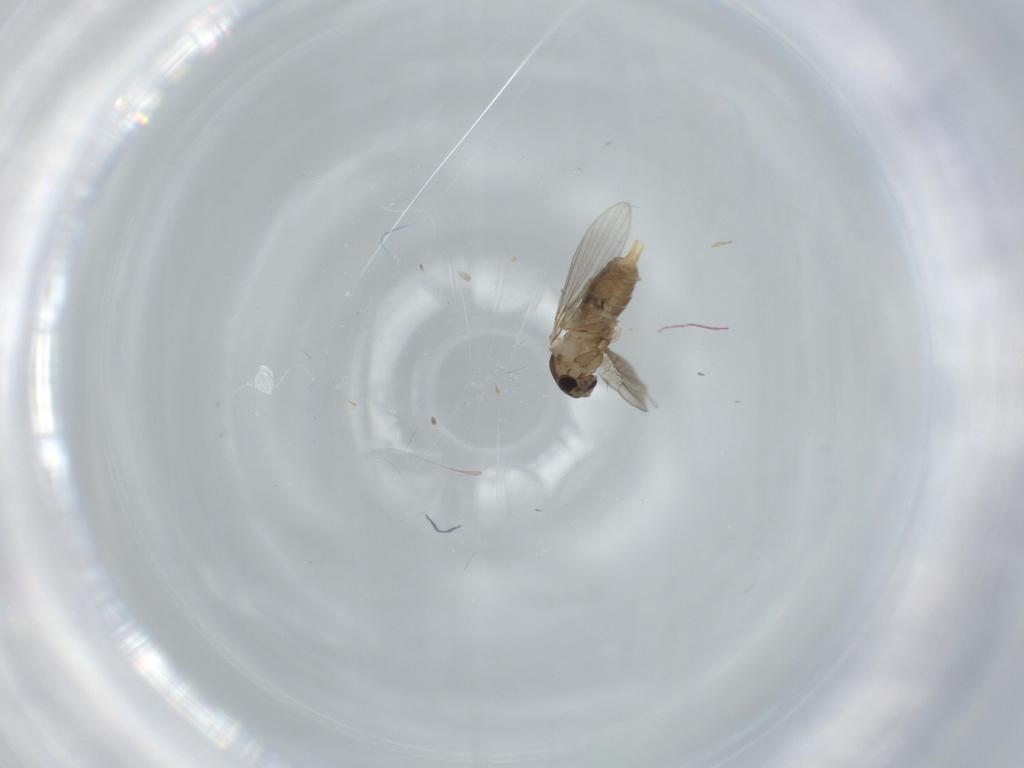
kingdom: Animalia
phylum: Arthropoda
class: Insecta
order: Diptera
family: Psychodidae
